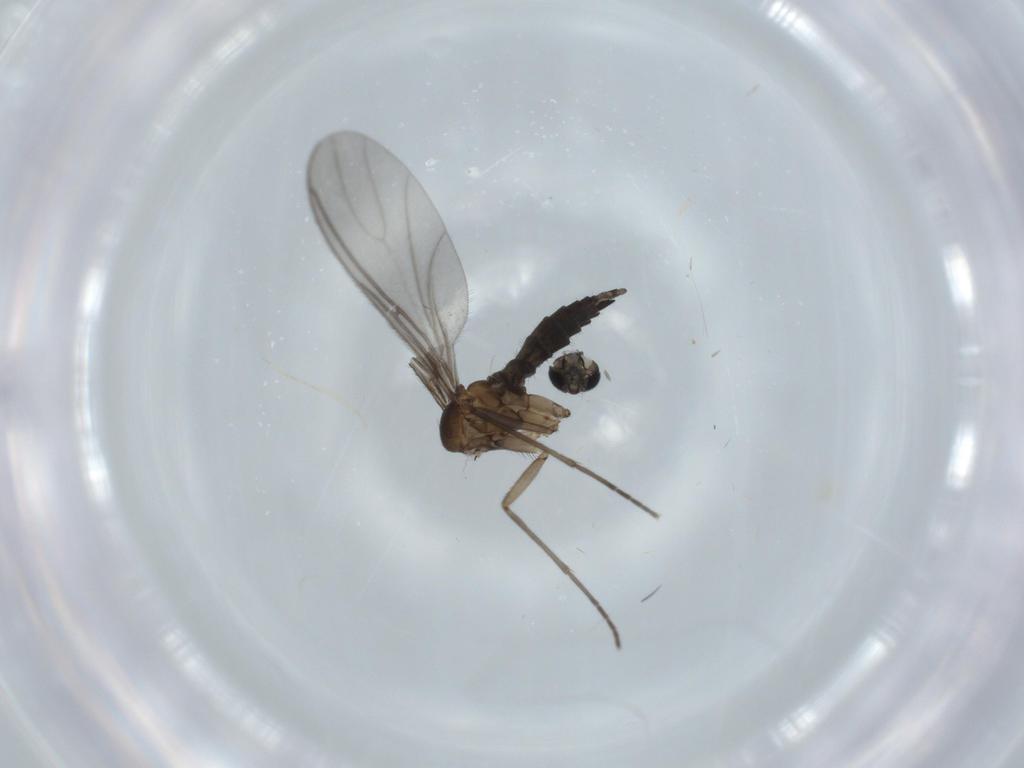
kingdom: Animalia
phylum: Arthropoda
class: Insecta
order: Diptera
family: Sciaridae
